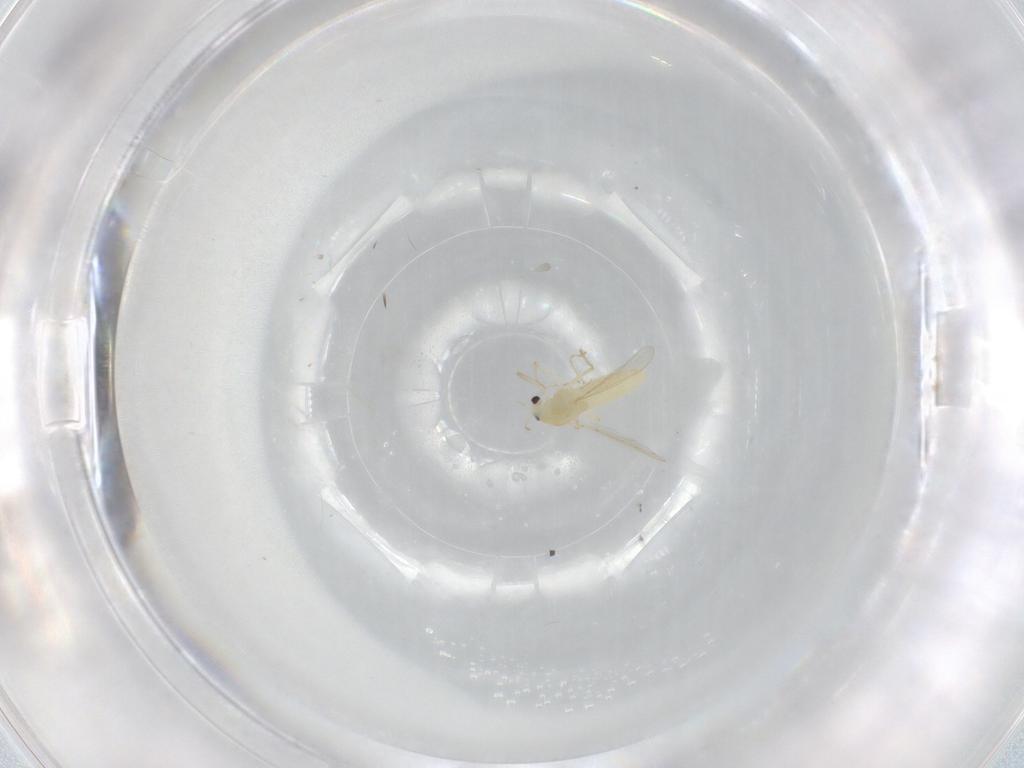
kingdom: Animalia
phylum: Arthropoda
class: Insecta
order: Diptera
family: Chironomidae
